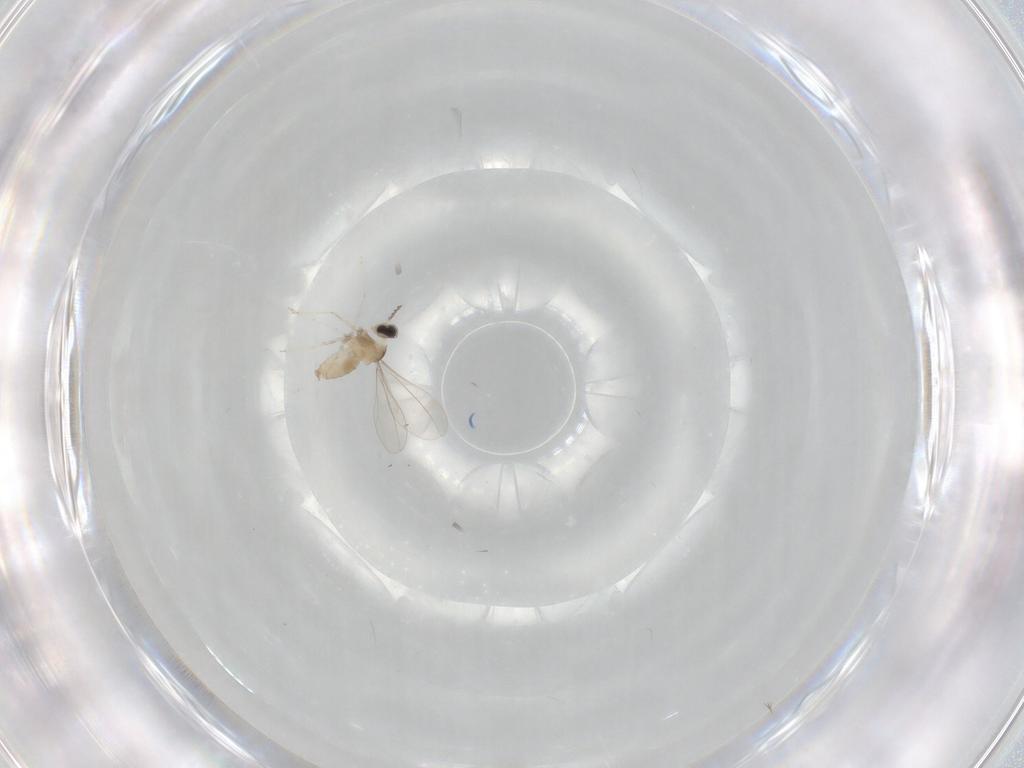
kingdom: Animalia
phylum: Arthropoda
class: Insecta
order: Diptera
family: Cecidomyiidae
